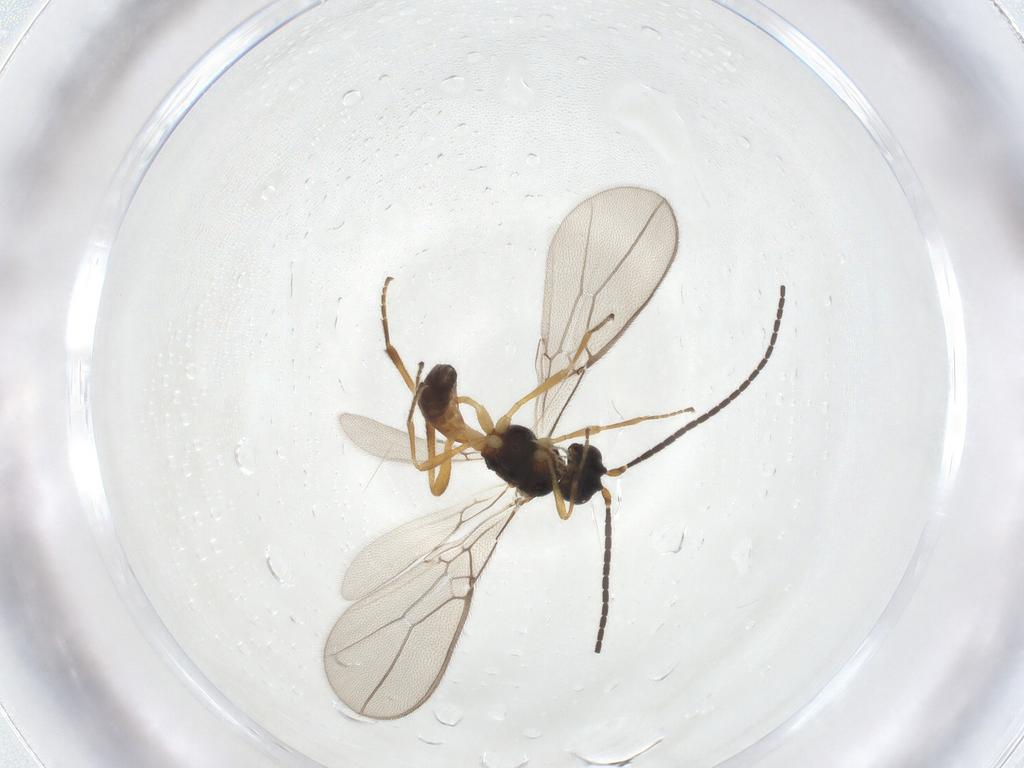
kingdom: Animalia
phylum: Arthropoda
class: Insecta
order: Hymenoptera
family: Braconidae
